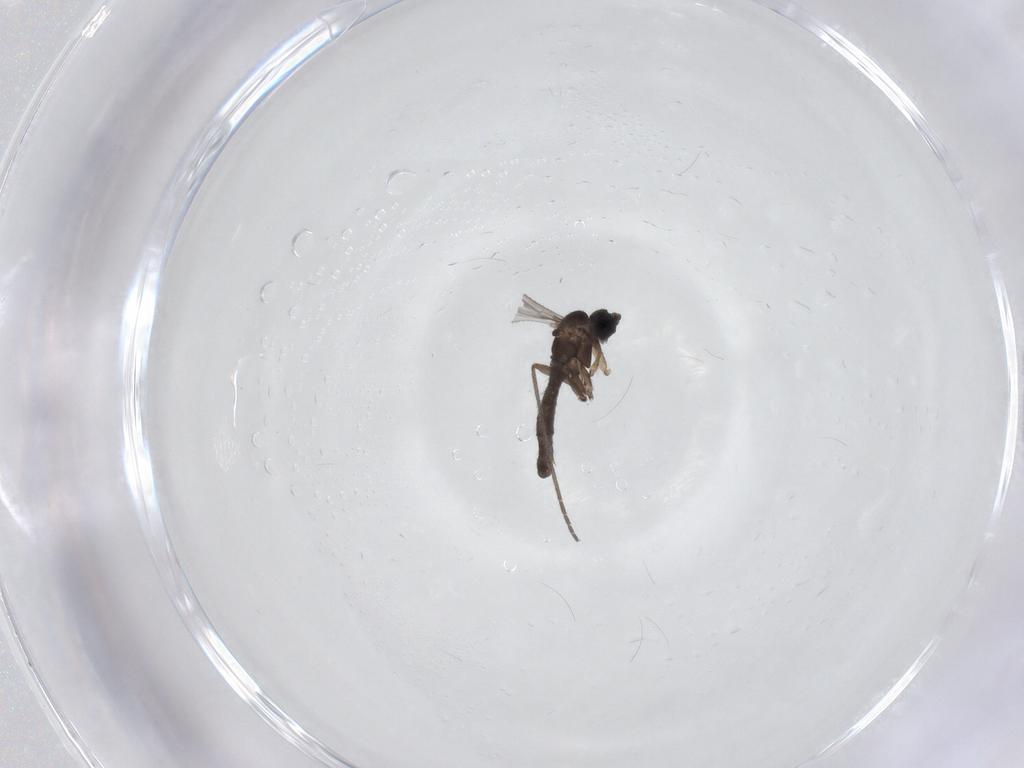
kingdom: Animalia
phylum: Arthropoda
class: Insecta
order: Diptera
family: Sciaridae
